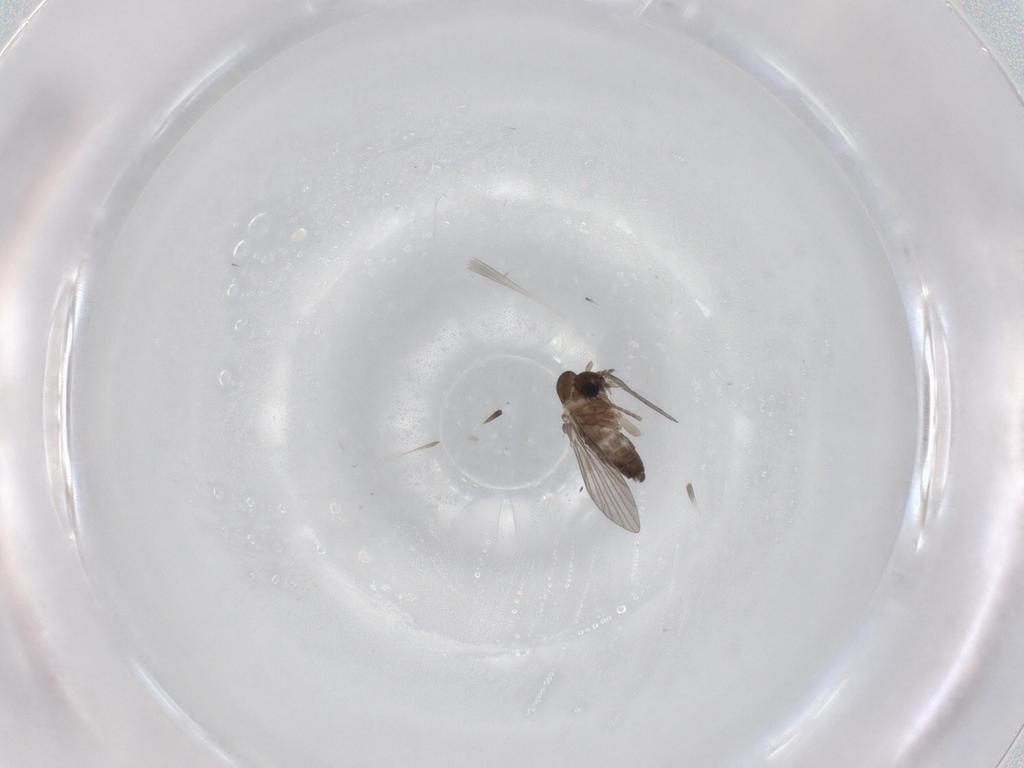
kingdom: Animalia
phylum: Arthropoda
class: Insecta
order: Diptera
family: Psychodidae
